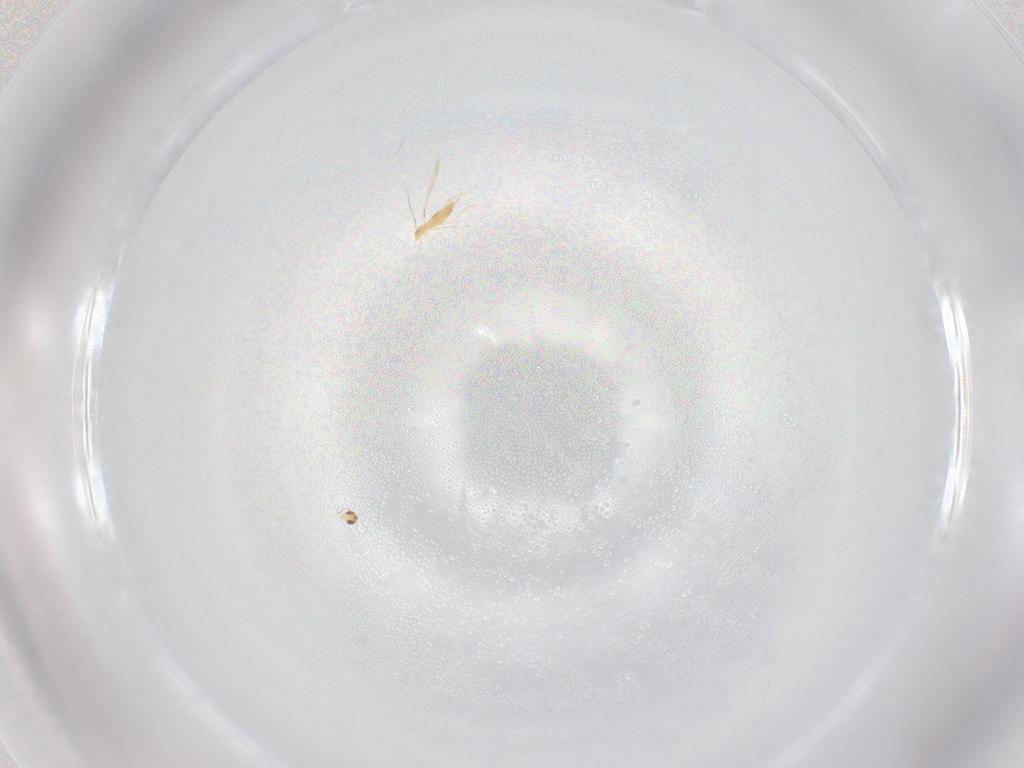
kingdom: Animalia
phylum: Arthropoda
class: Insecta
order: Hymenoptera
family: Mymaridae
